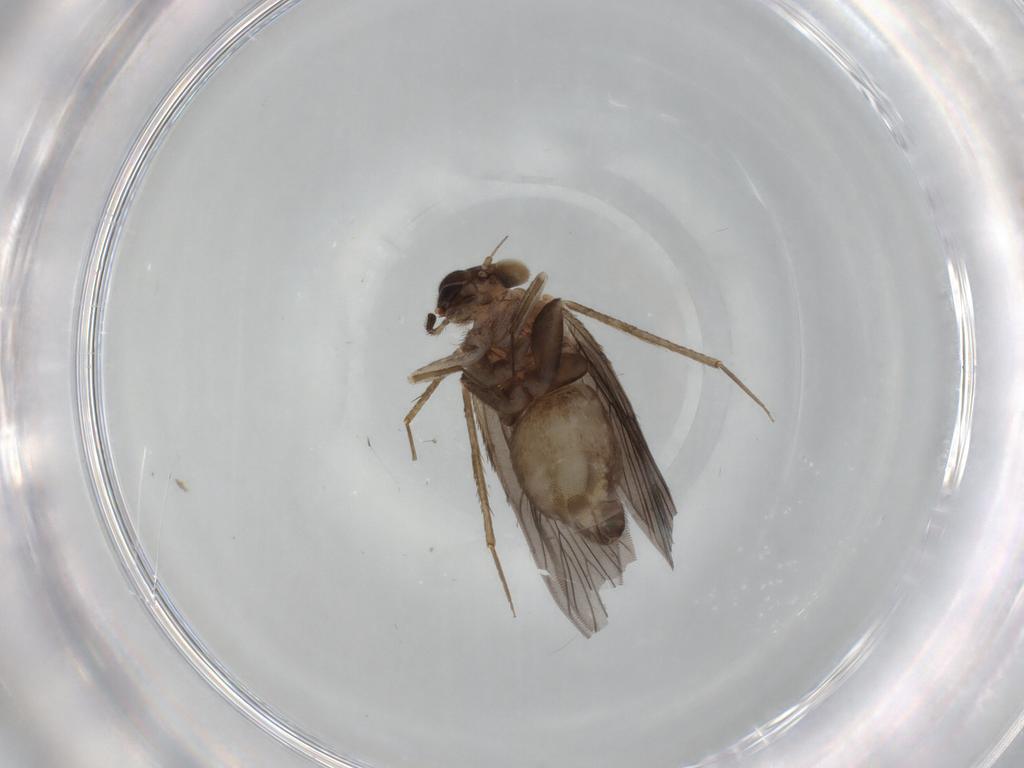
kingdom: Animalia
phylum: Arthropoda
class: Insecta
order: Psocodea
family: Lepidopsocidae
